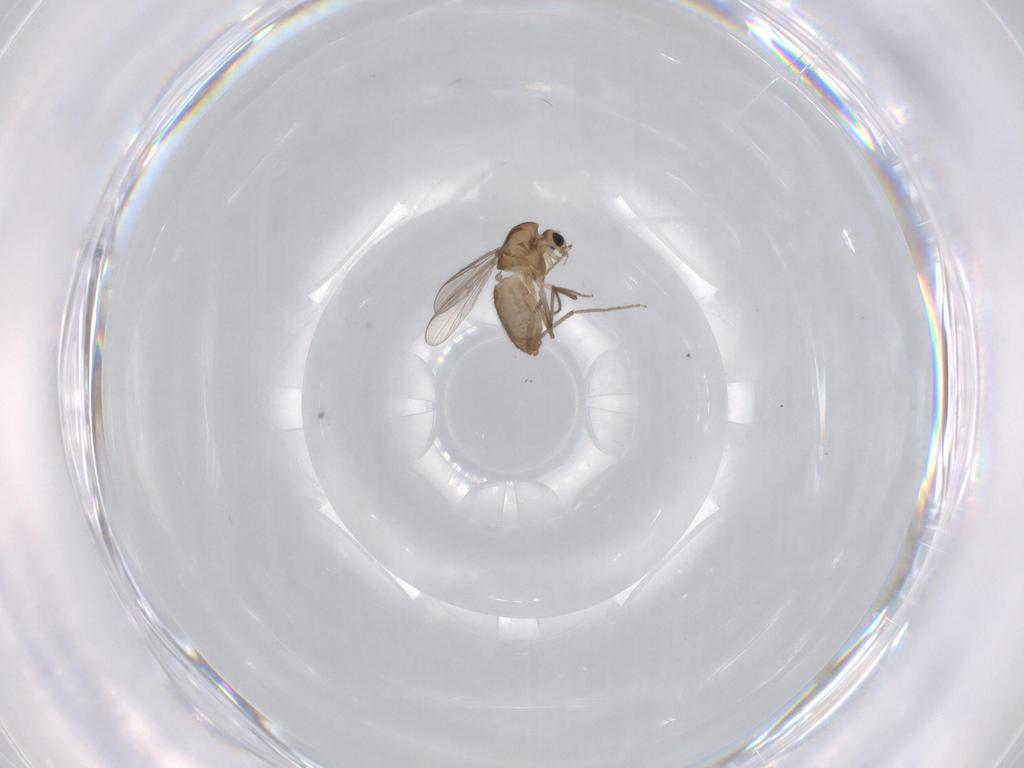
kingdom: Animalia
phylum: Arthropoda
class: Insecta
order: Diptera
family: Chironomidae
